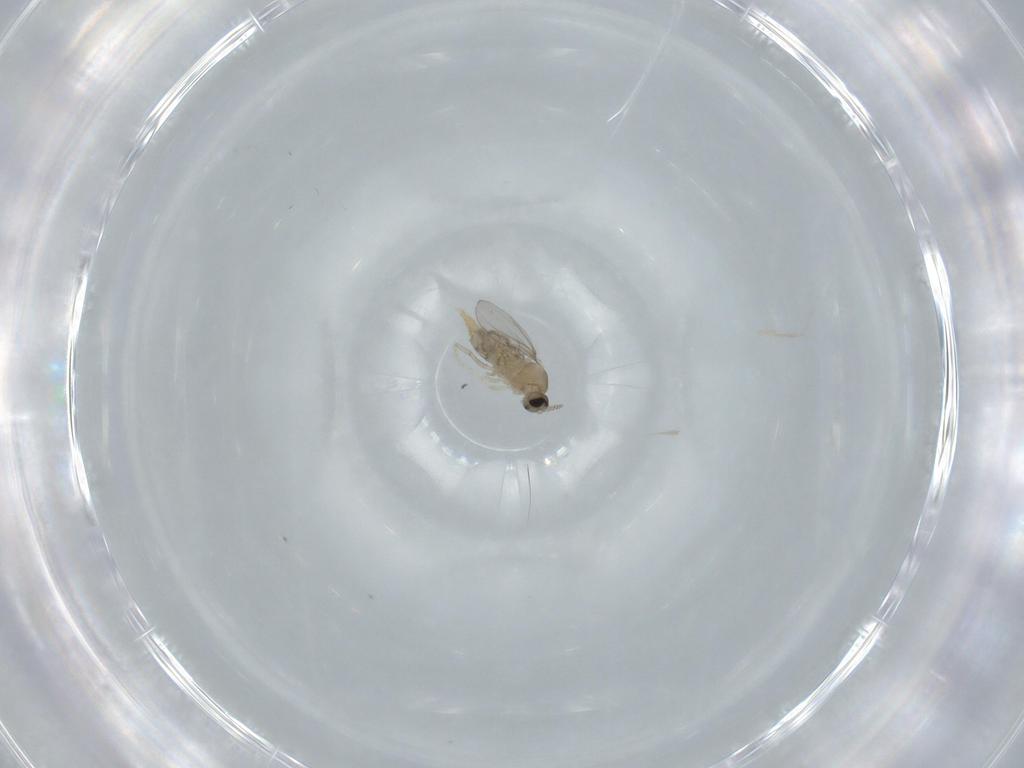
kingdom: Animalia
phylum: Arthropoda
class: Insecta
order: Diptera
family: Cecidomyiidae
